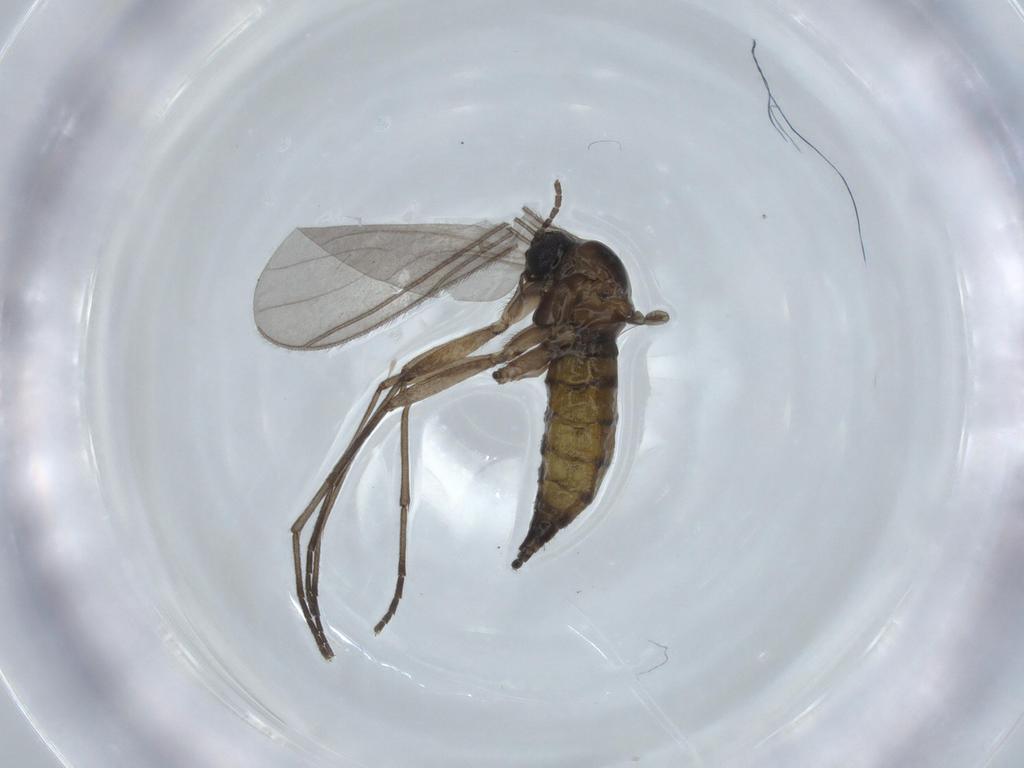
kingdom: Animalia
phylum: Arthropoda
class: Insecta
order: Diptera
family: Sciaridae
